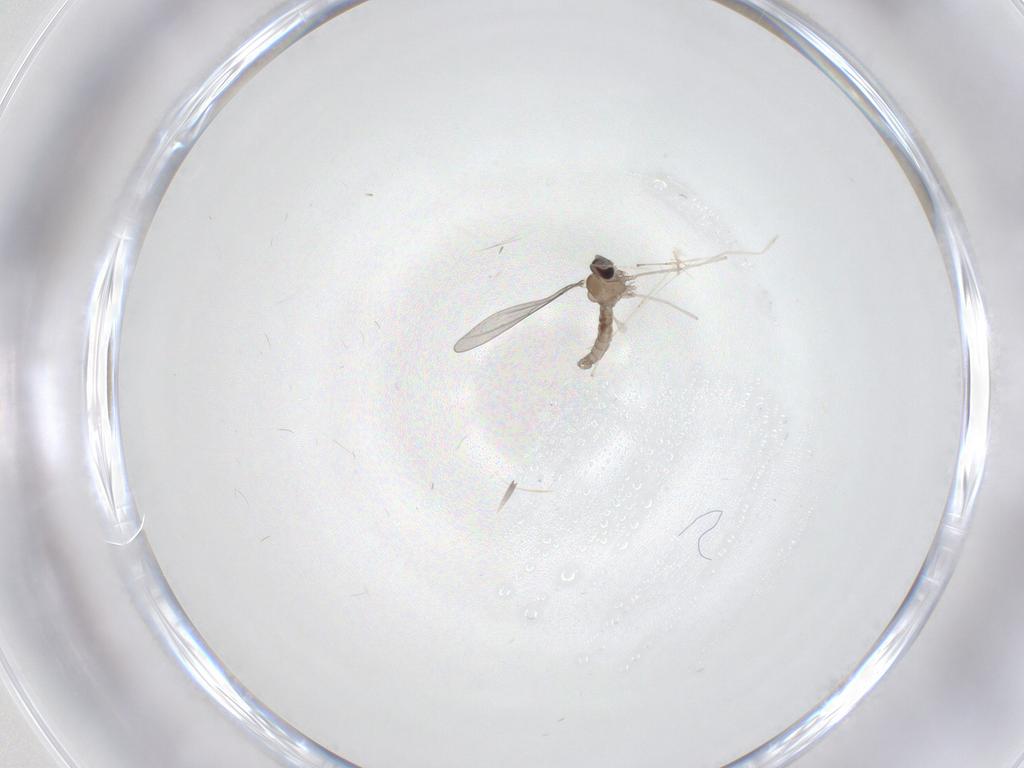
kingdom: Animalia
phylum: Arthropoda
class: Insecta
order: Diptera
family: Cecidomyiidae
